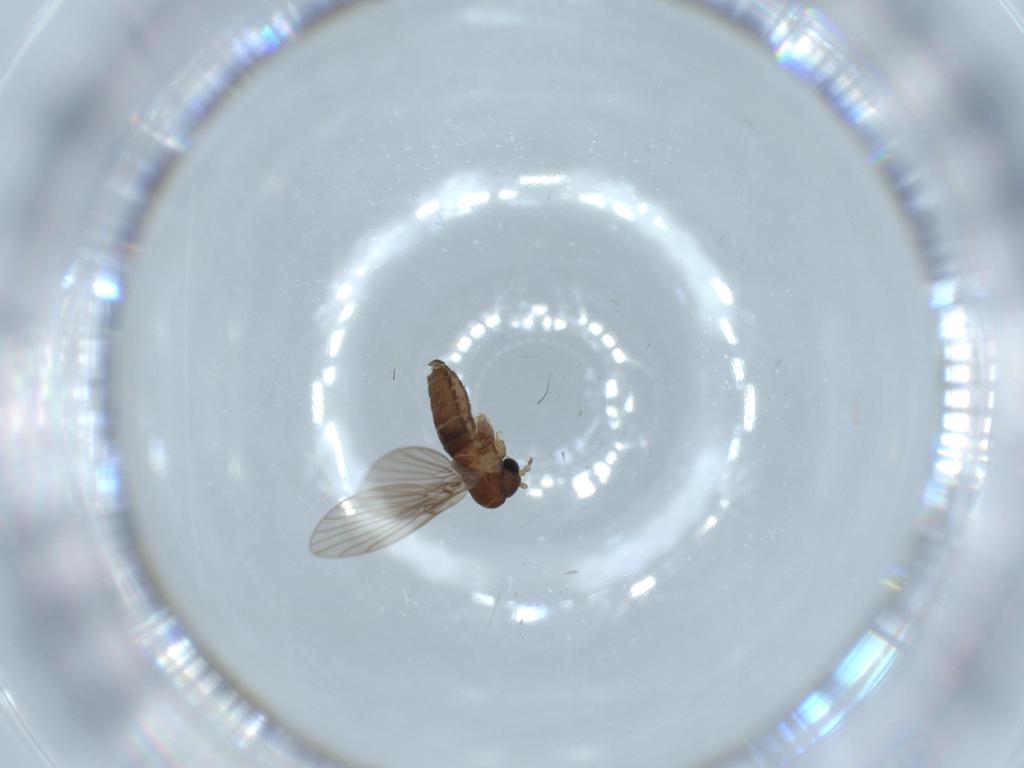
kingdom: Animalia
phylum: Arthropoda
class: Insecta
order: Diptera
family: Psychodidae
